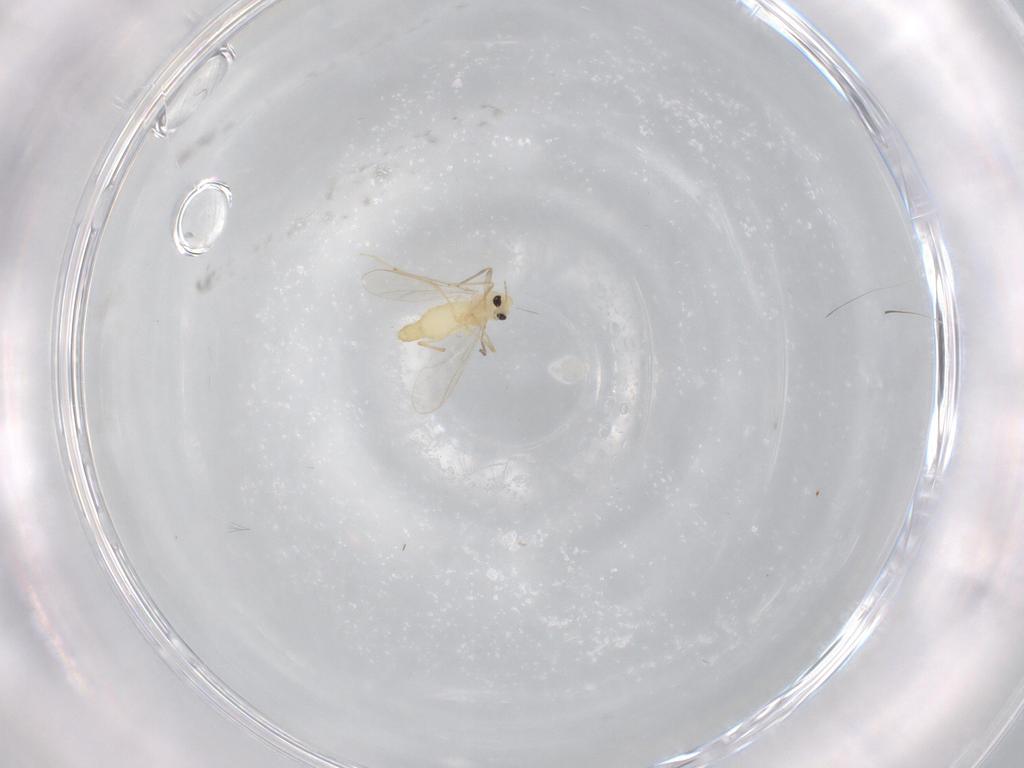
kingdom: Animalia
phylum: Arthropoda
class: Insecta
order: Diptera
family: Chironomidae
